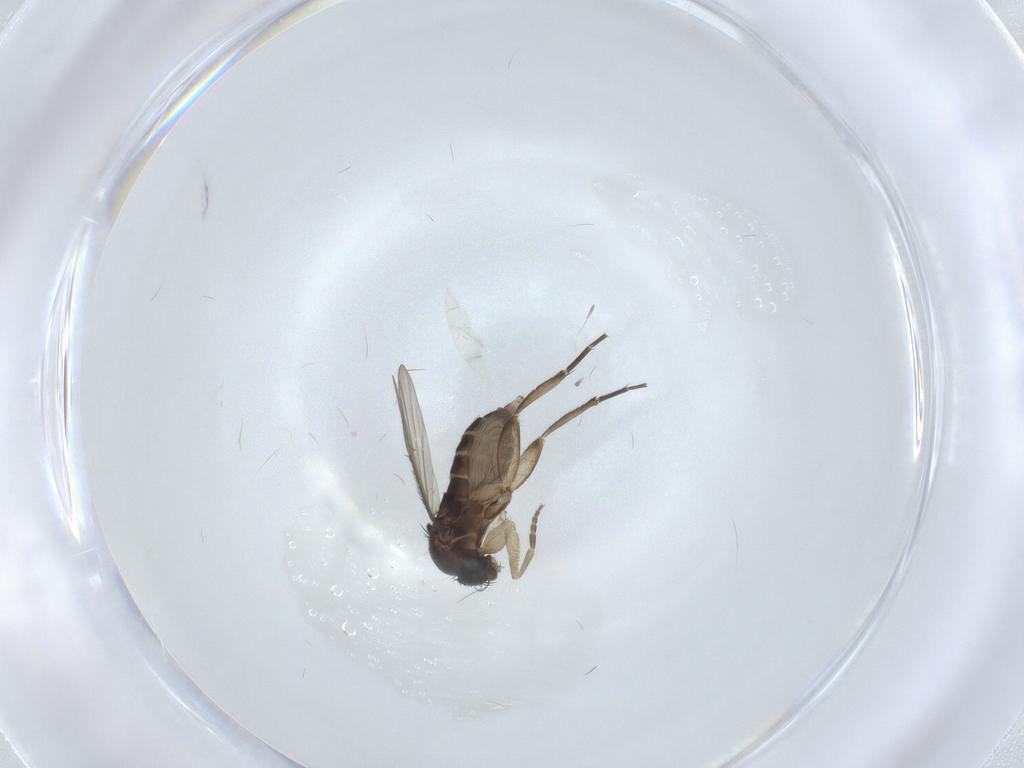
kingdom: Animalia
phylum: Arthropoda
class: Insecta
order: Diptera
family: Phoridae
